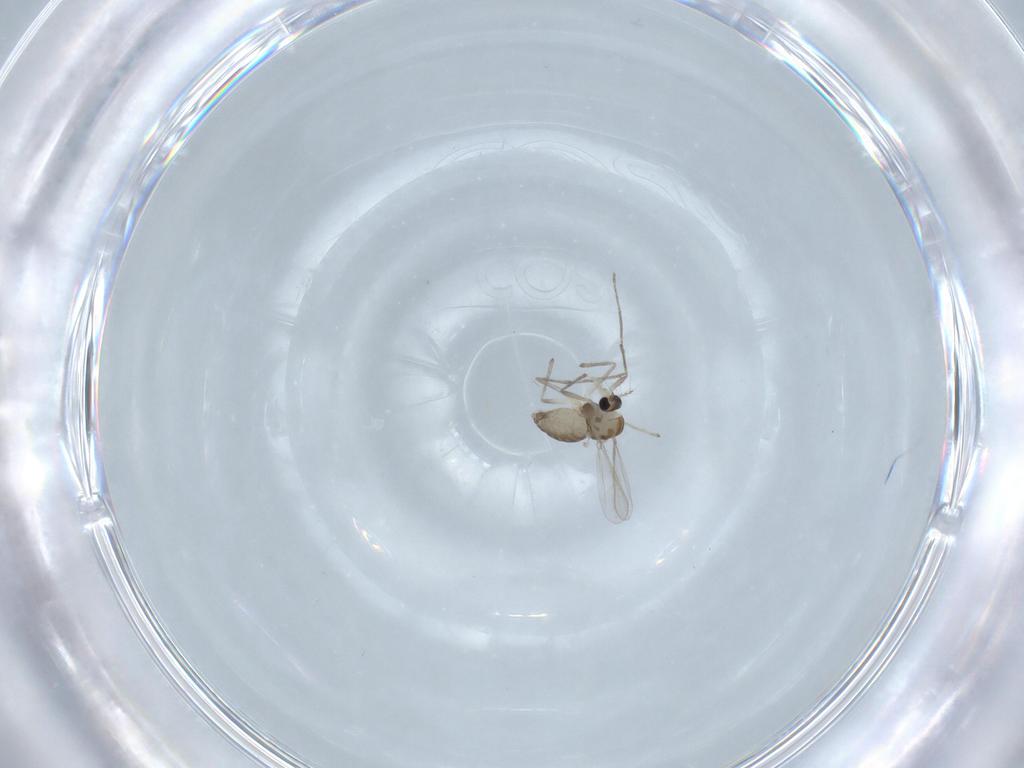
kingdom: Animalia
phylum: Arthropoda
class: Insecta
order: Diptera
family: Chironomidae
